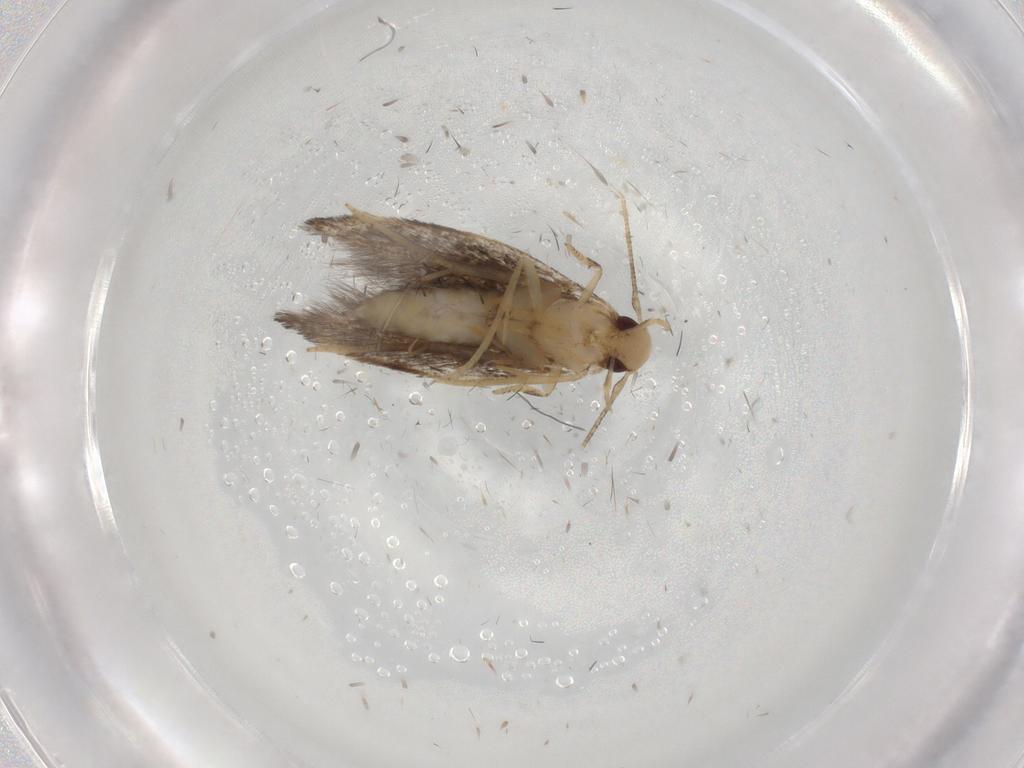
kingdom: Animalia
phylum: Arthropoda
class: Insecta
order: Lepidoptera
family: Gelechiidae
